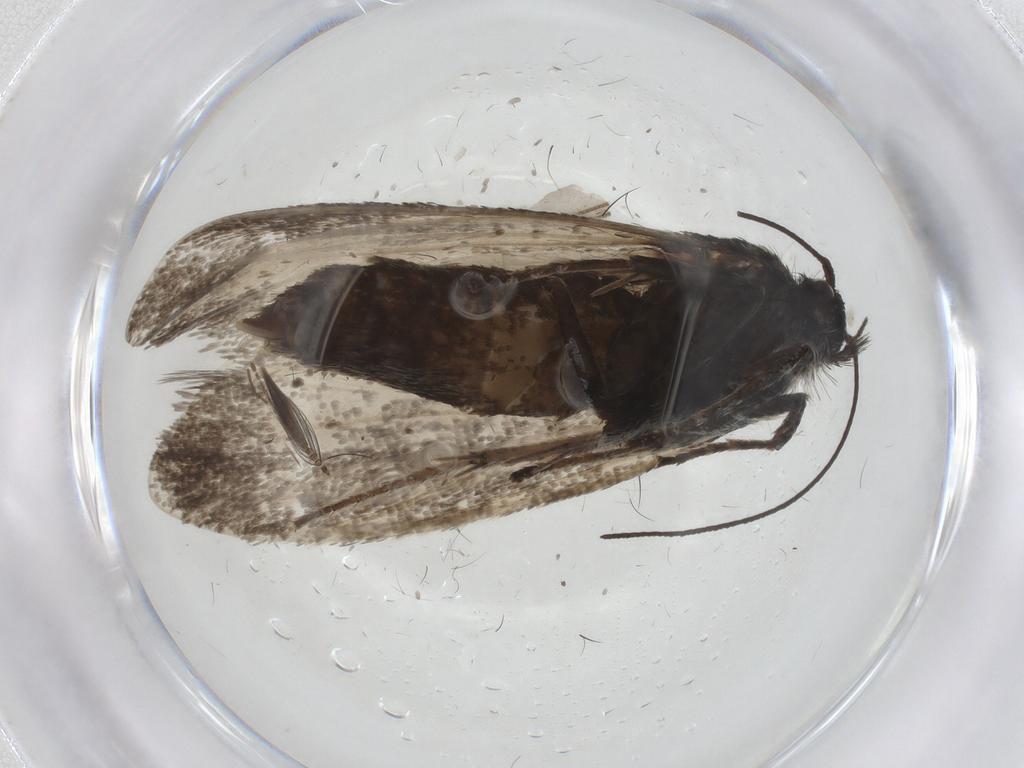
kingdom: Animalia
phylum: Arthropoda
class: Insecta
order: Lepidoptera
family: Depressariidae
